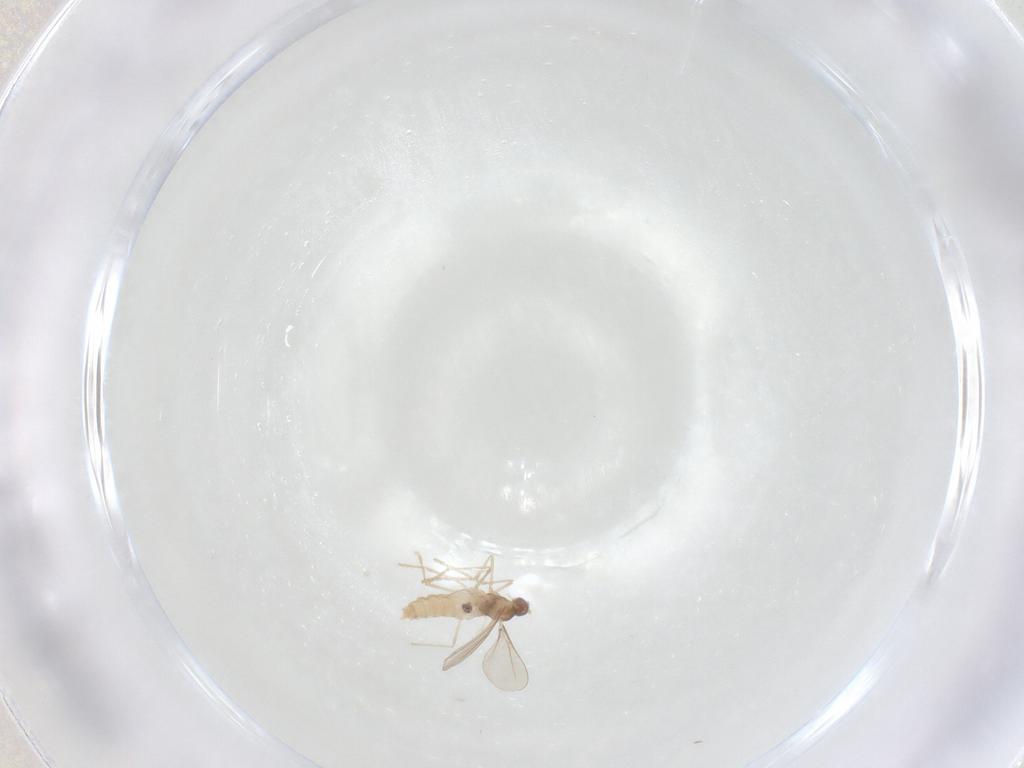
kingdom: Animalia
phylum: Arthropoda
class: Insecta
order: Diptera
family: Cecidomyiidae
